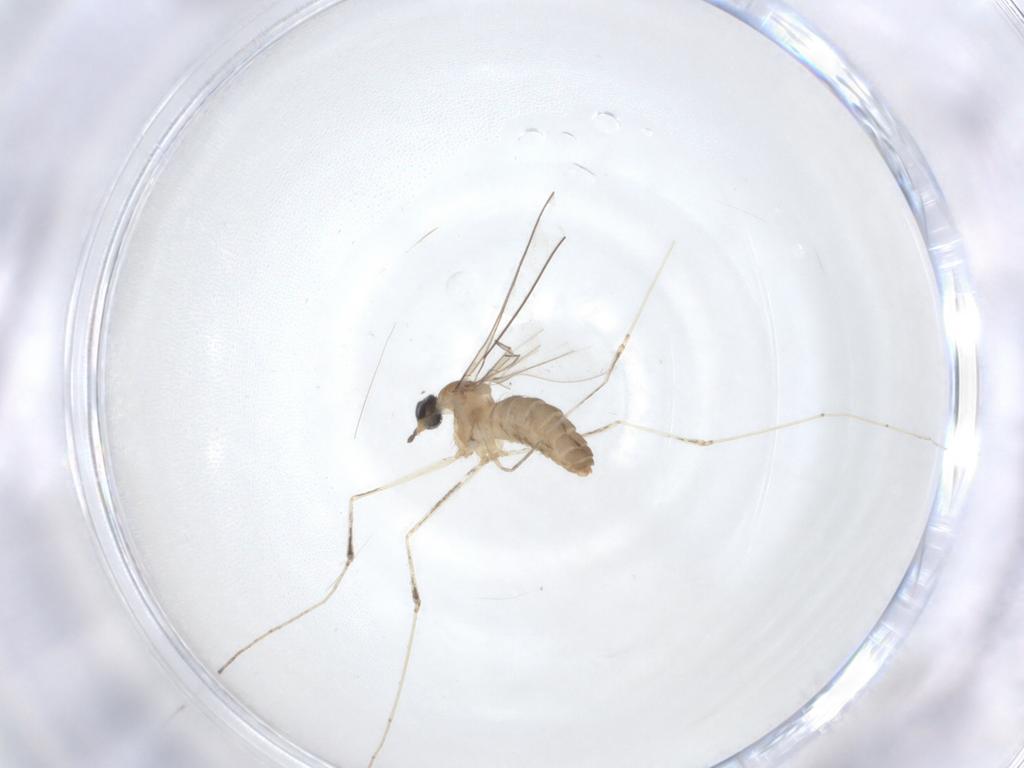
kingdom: Animalia
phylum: Arthropoda
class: Insecta
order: Diptera
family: Cecidomyiidae
